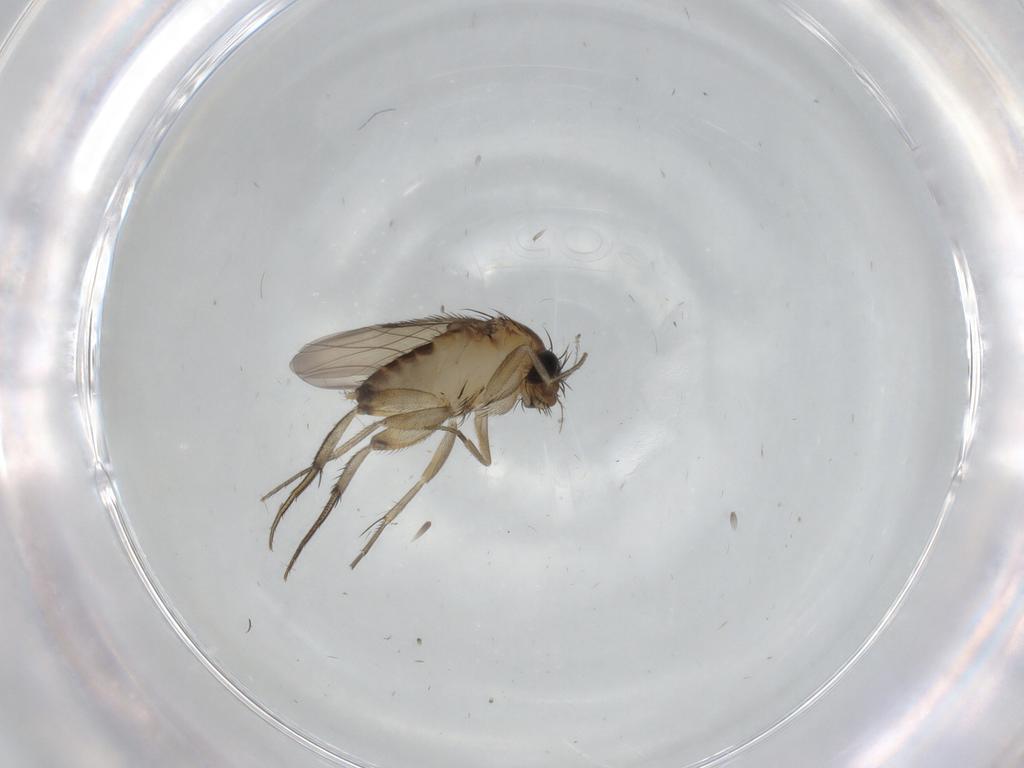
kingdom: Animalia
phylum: Arthropoda
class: Insecta
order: Diptera
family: Phoridae
